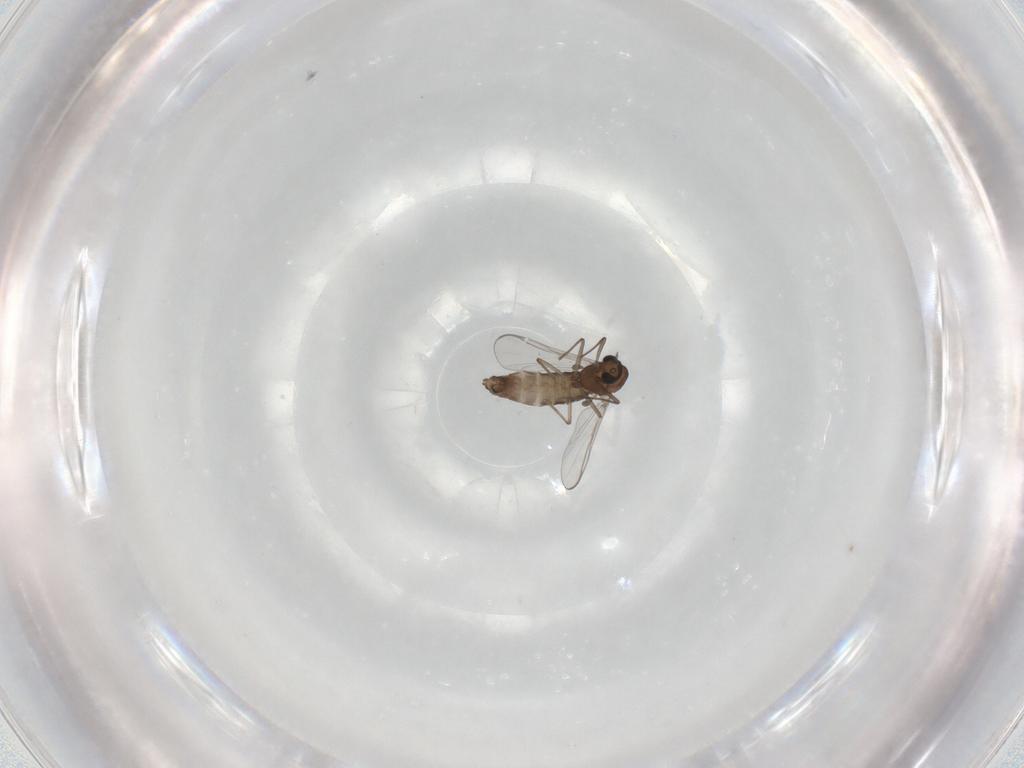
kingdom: Animalia
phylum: Arthropoda
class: Insecta
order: Diptera
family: Chironomidae
